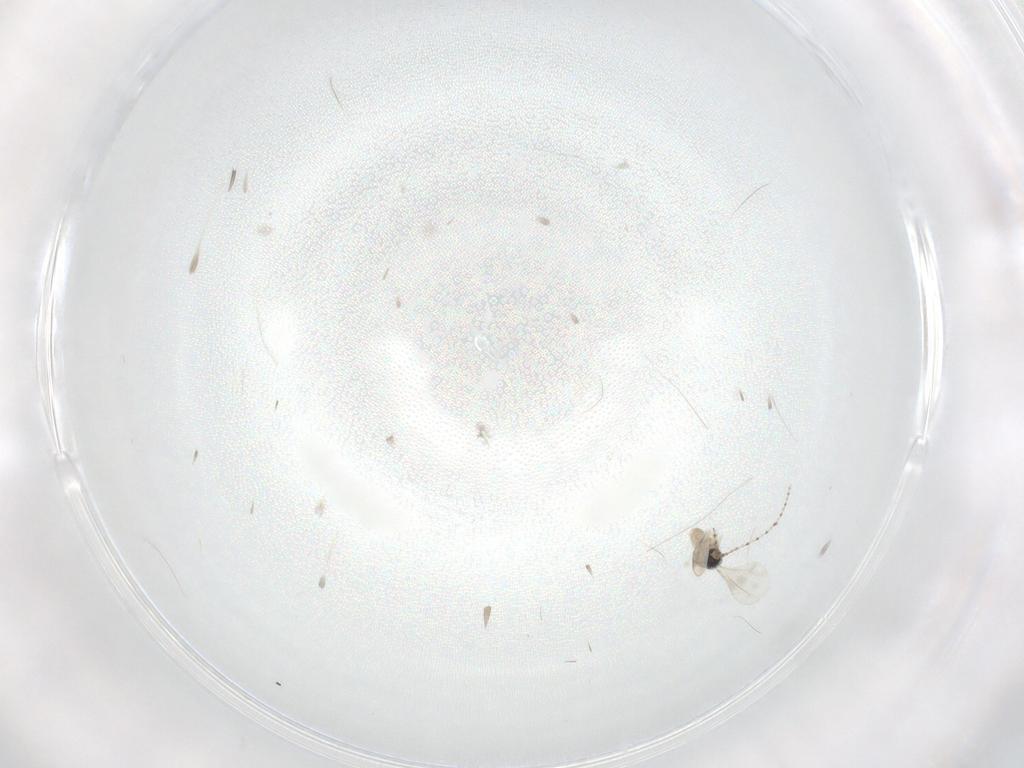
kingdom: Animalia
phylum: Arthropoda
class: Insecta
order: Diptera
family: Cecidomyiidae
